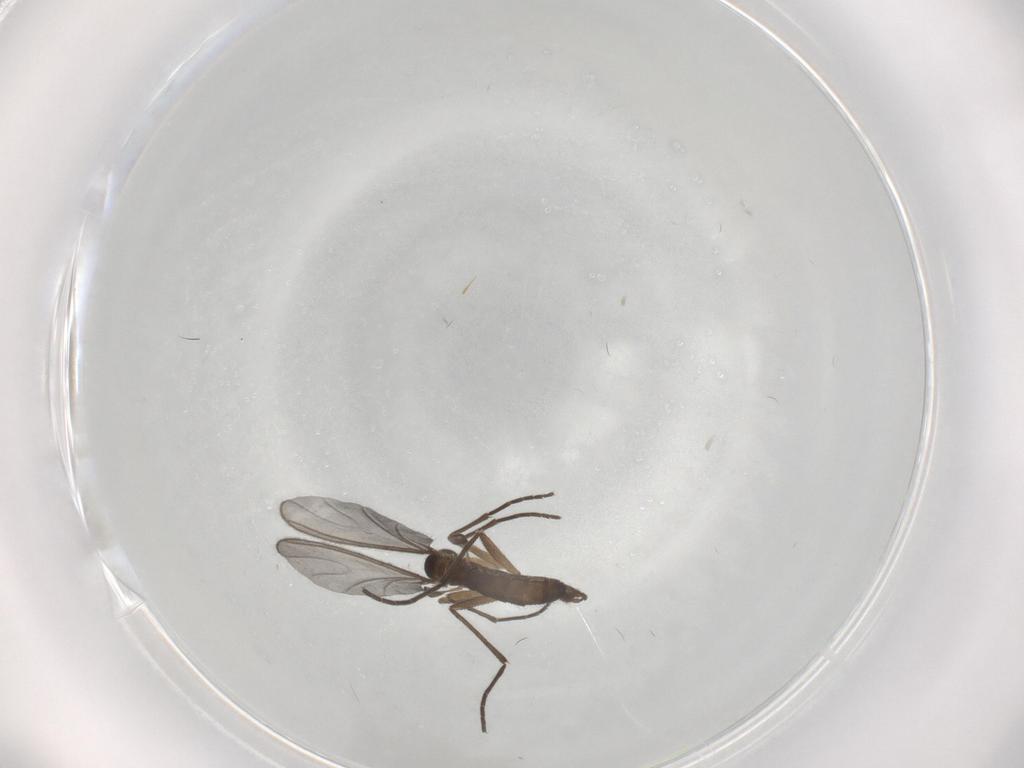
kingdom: Animalia
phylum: Arthropoda
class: Insecta
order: Diptera
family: Sciaridae
